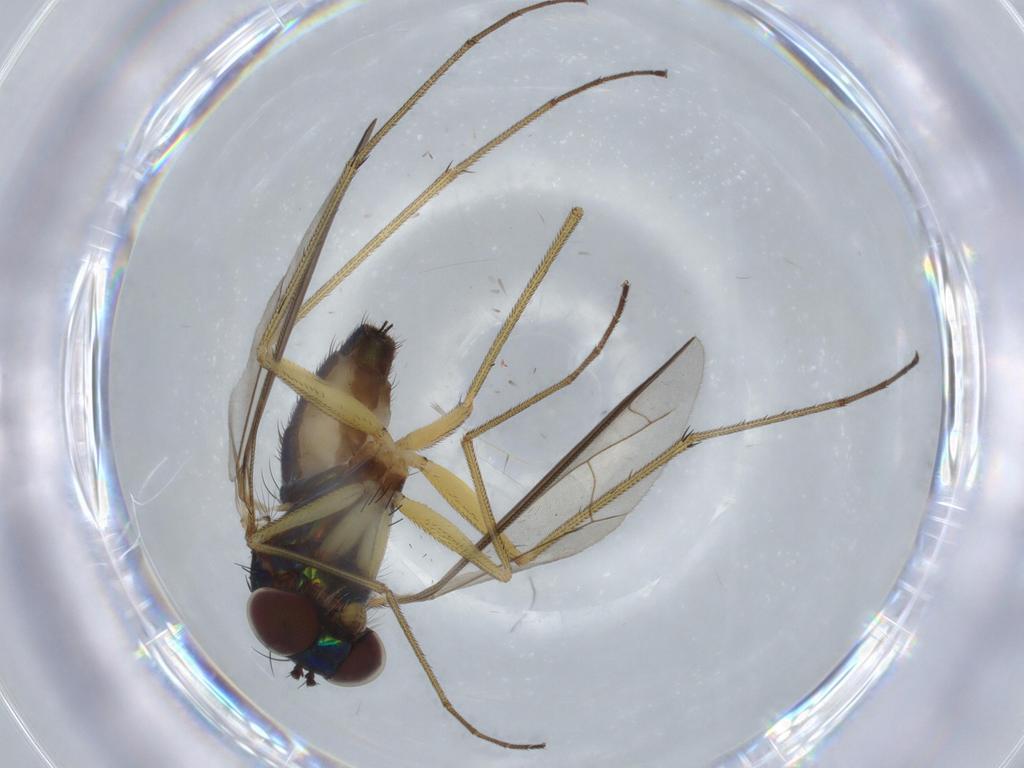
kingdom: Animalia
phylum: Arthropoda
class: Insecta
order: Diptera
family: Dolichopodidae
